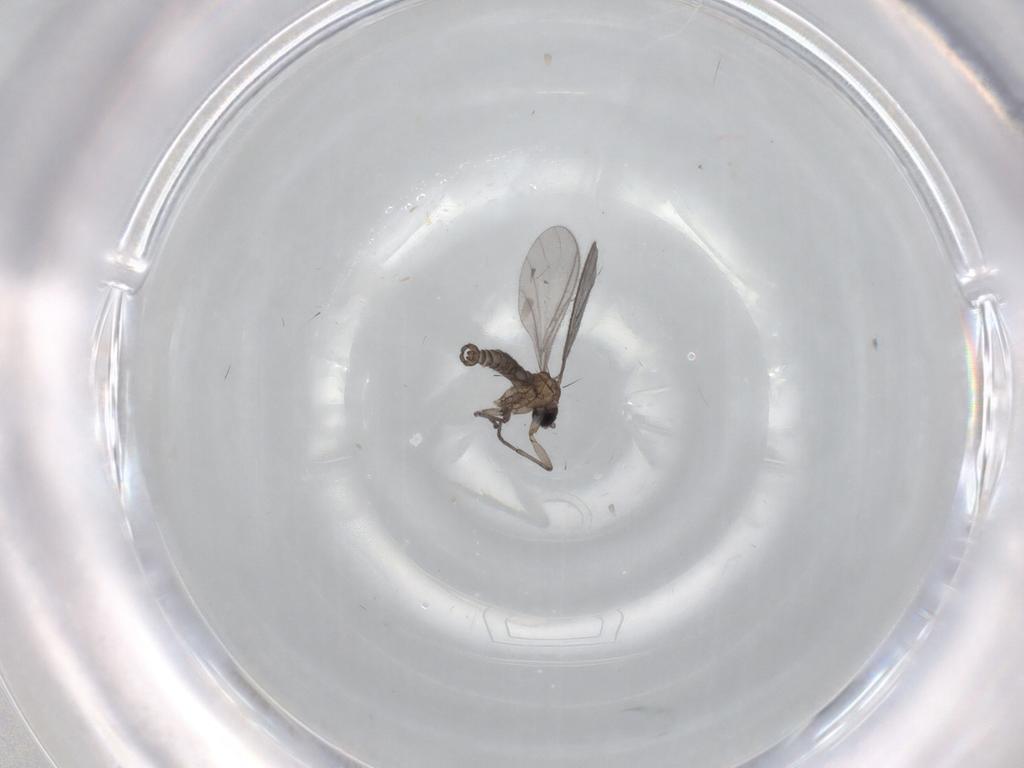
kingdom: Animalia
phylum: Arthropoda
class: Insecta
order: Diptera
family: Sciaridae
